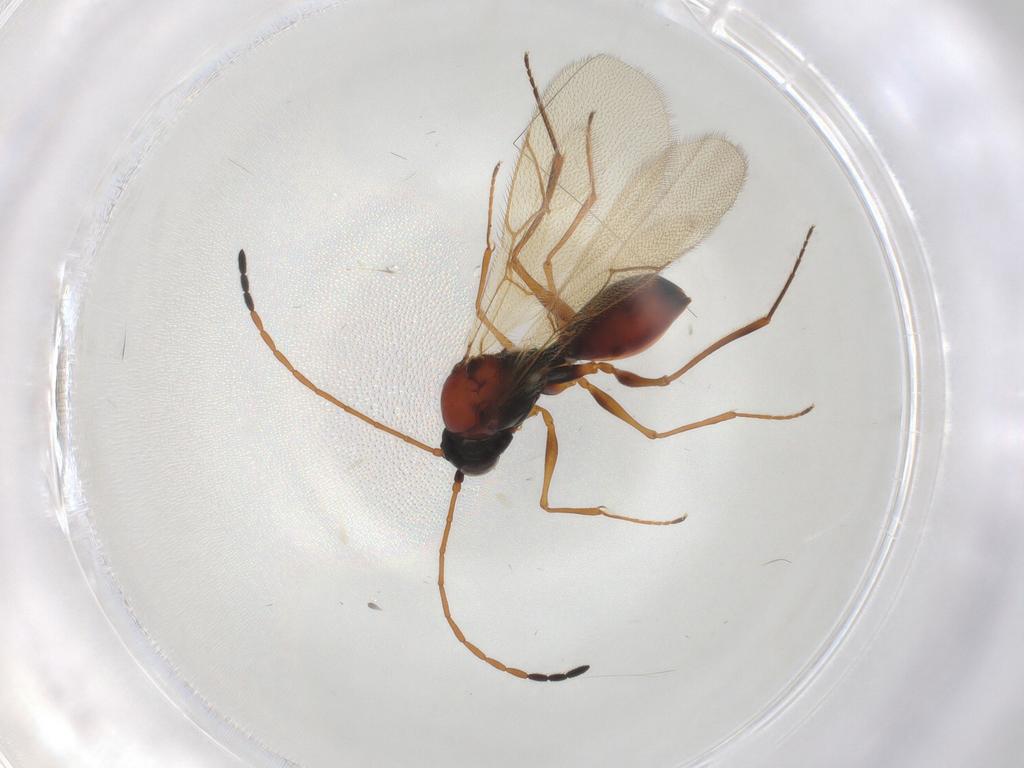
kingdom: Animalia
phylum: Arthropoda
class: Insecta
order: Hymenoptera
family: Figitidae
